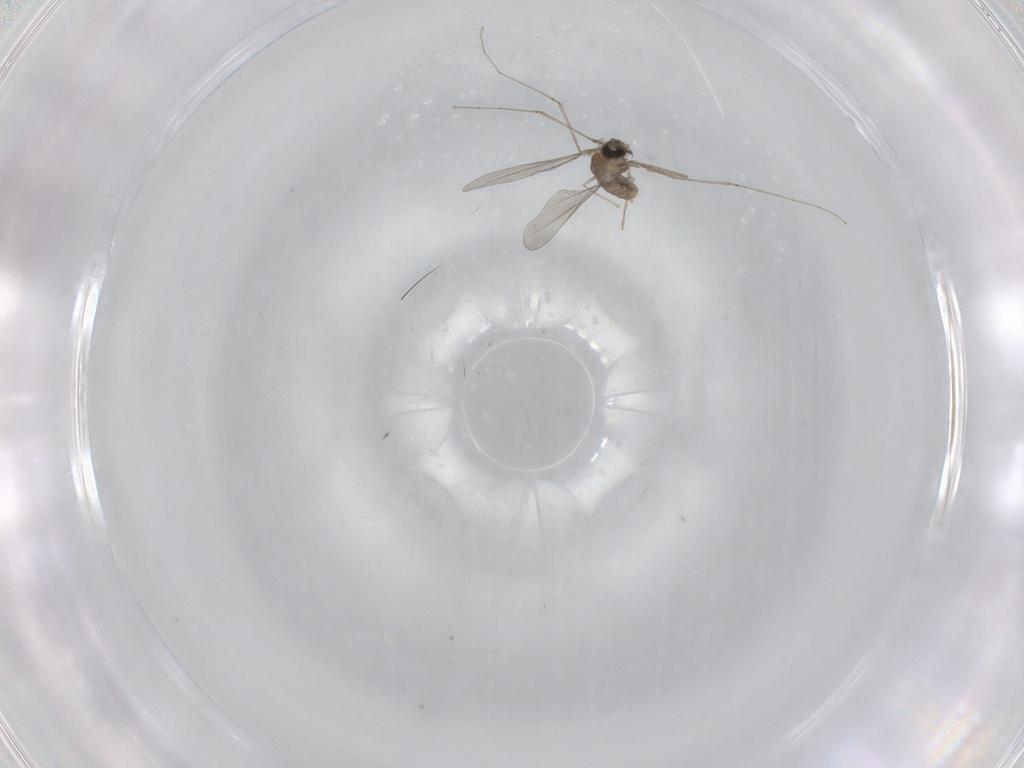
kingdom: Animalia
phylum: Arthropoda
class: Insecta
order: Diptera
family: Cecidomyiidae
